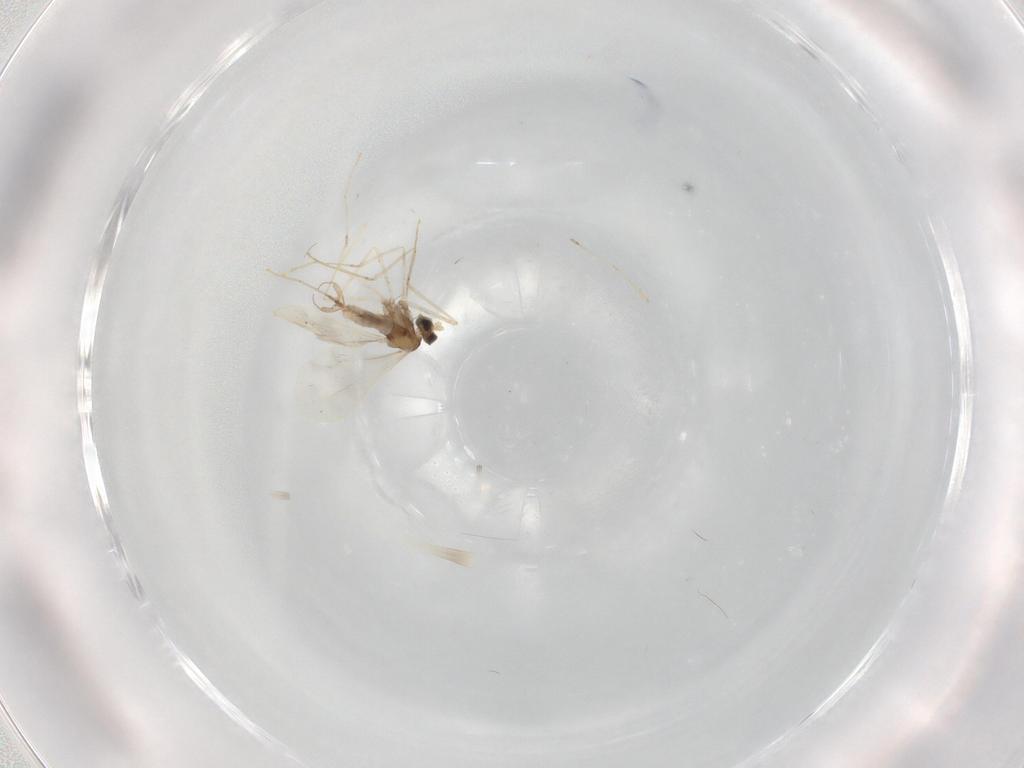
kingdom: Animalia
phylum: Arthropoda
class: Insecta
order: Diptera
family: Cecidomyiidae
